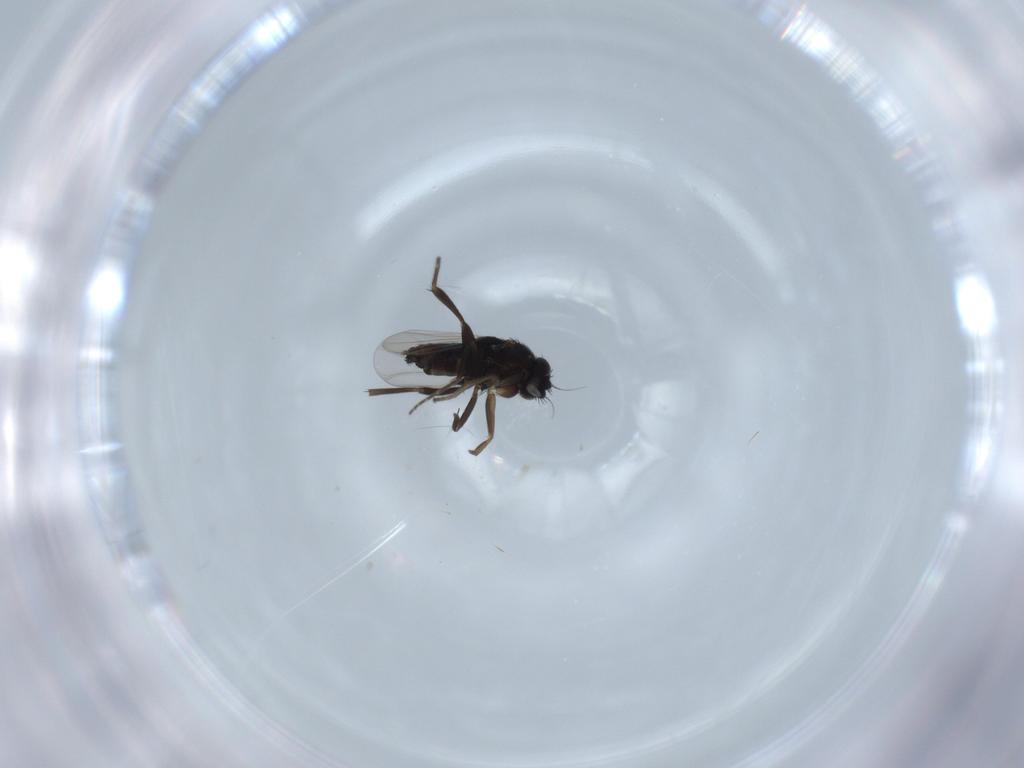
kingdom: Animalia
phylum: Arthropoda
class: Insecta
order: Diptera
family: Phoridae
